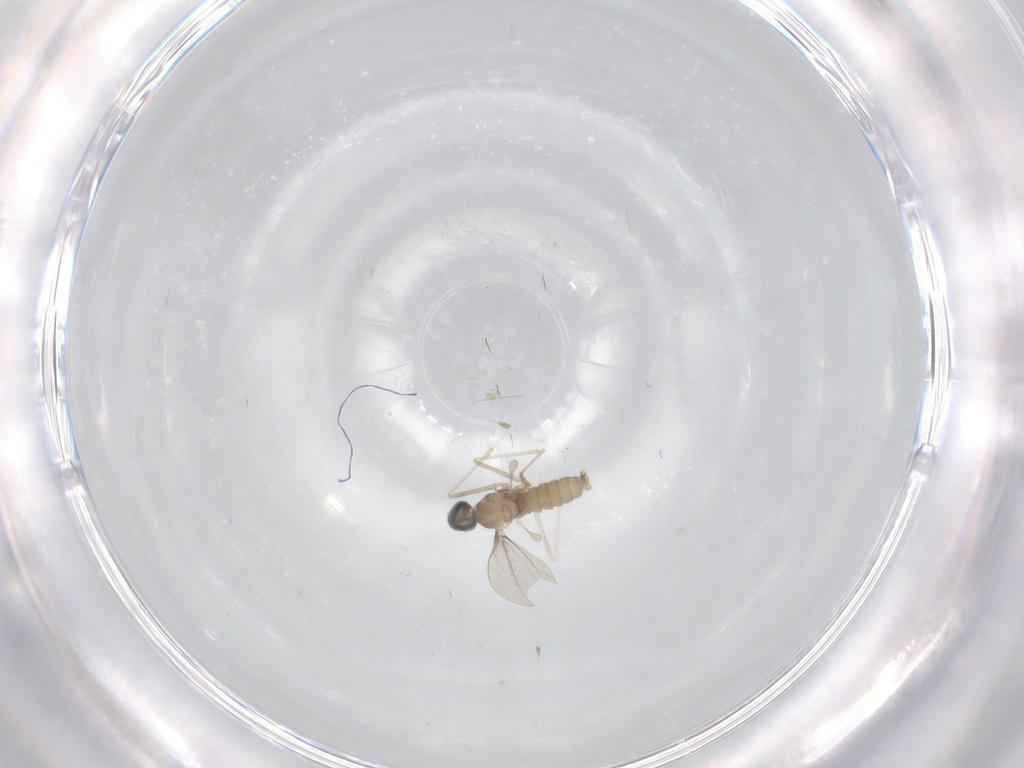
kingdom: Animalia
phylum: Arthropoda
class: Insecta
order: Diptera
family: Cecidomyiidae
